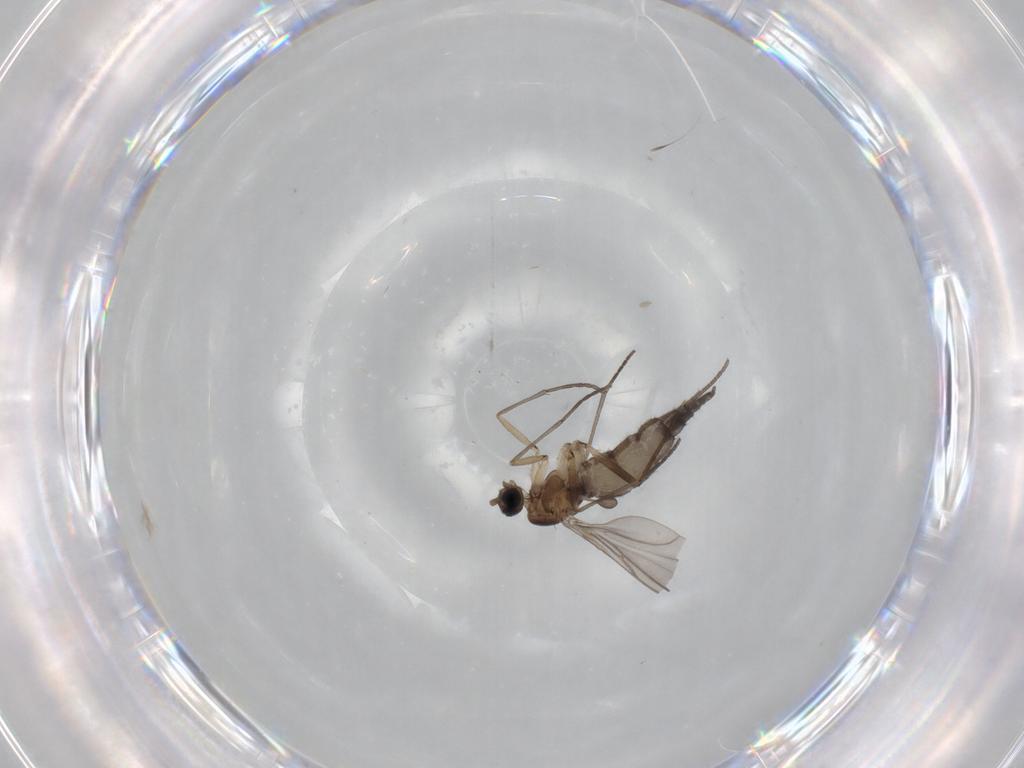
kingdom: Animalia
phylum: Arthropoda
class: Insecta
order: Diptera
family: Sciaridae
